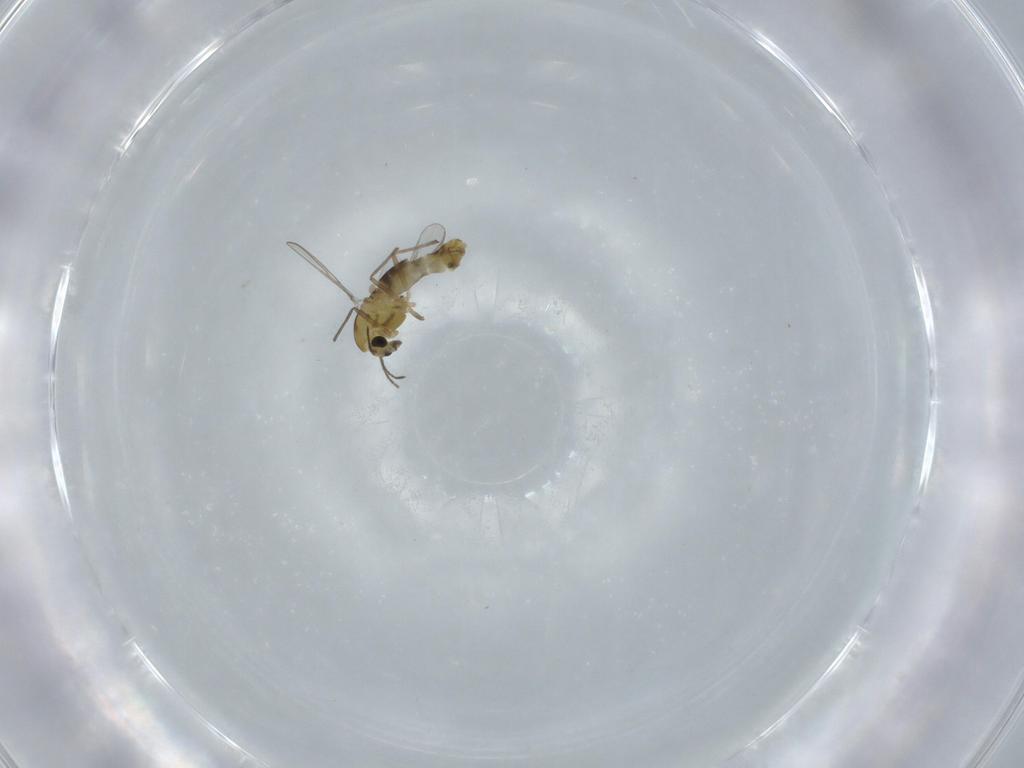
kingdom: Animalia
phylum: Arthropoda
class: Insecta
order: Diptera
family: Chironomidae
